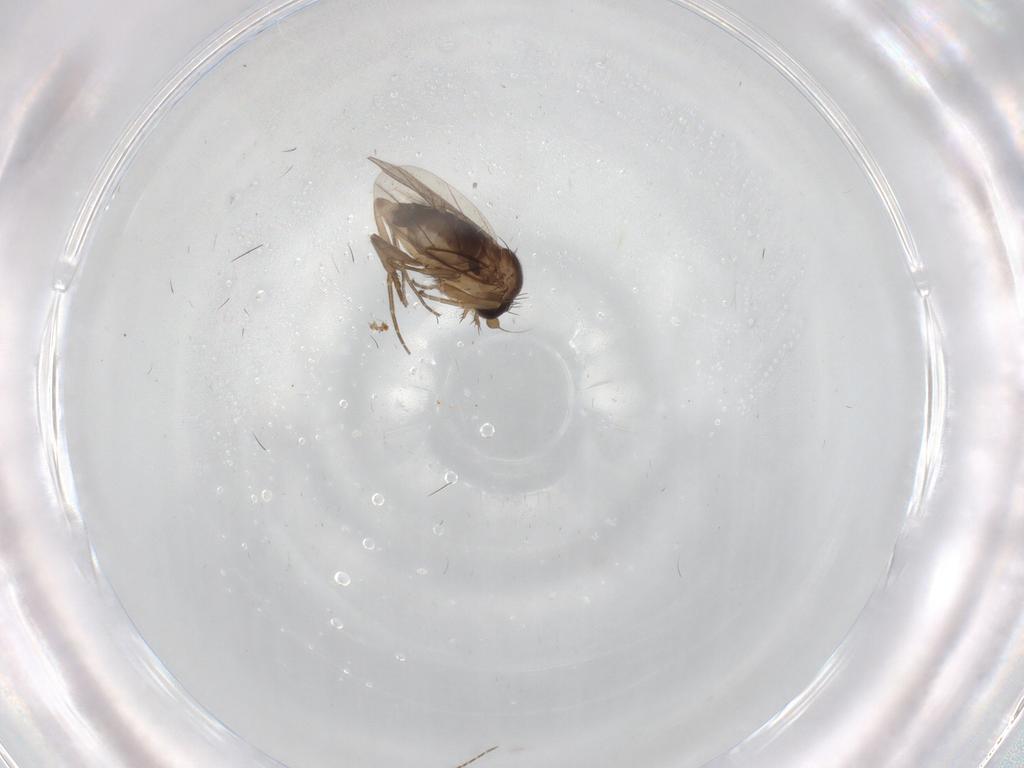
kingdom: Animalia
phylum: Arthropoda
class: Insecta
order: Diptera
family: Phoridae
